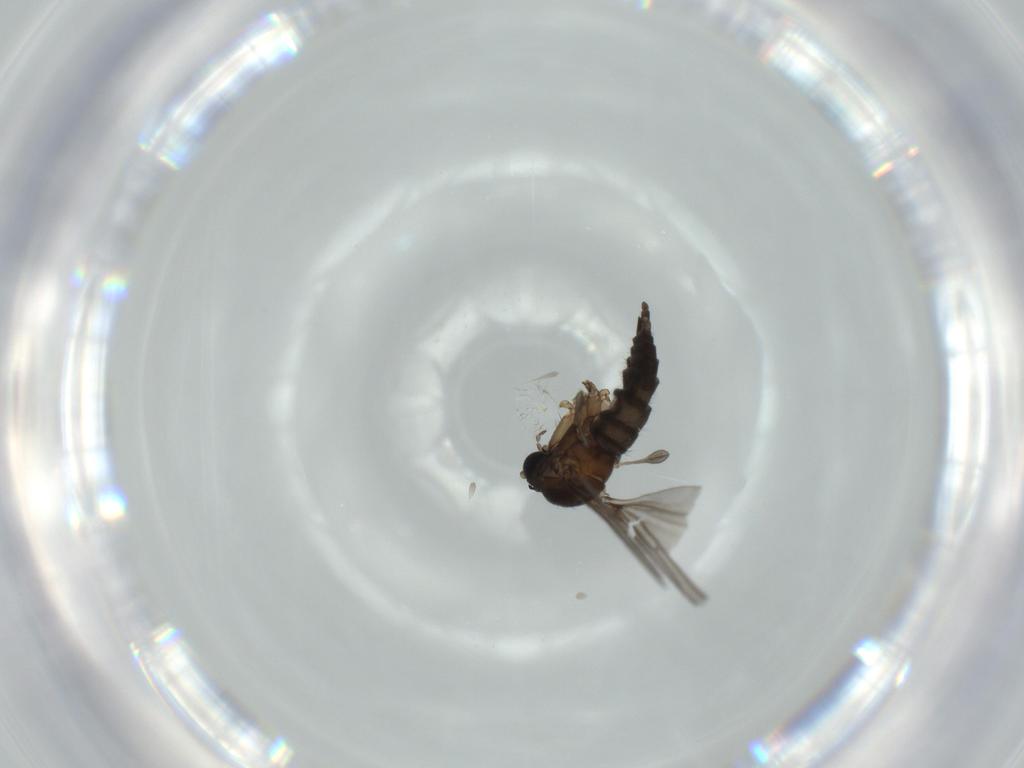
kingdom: Animalia
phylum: Arthropoda
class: Insecta
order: Diptera
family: Sciaridae
